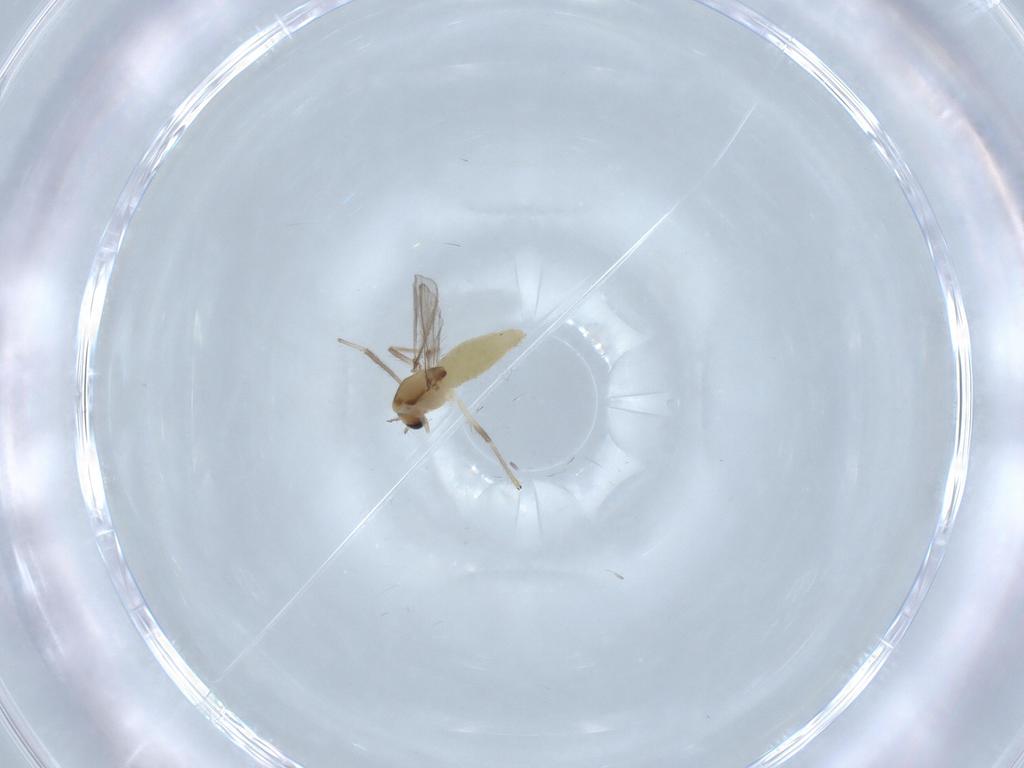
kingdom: Animalia
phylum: Arthropoda
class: Insecta
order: Diptera
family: Chironomidae
